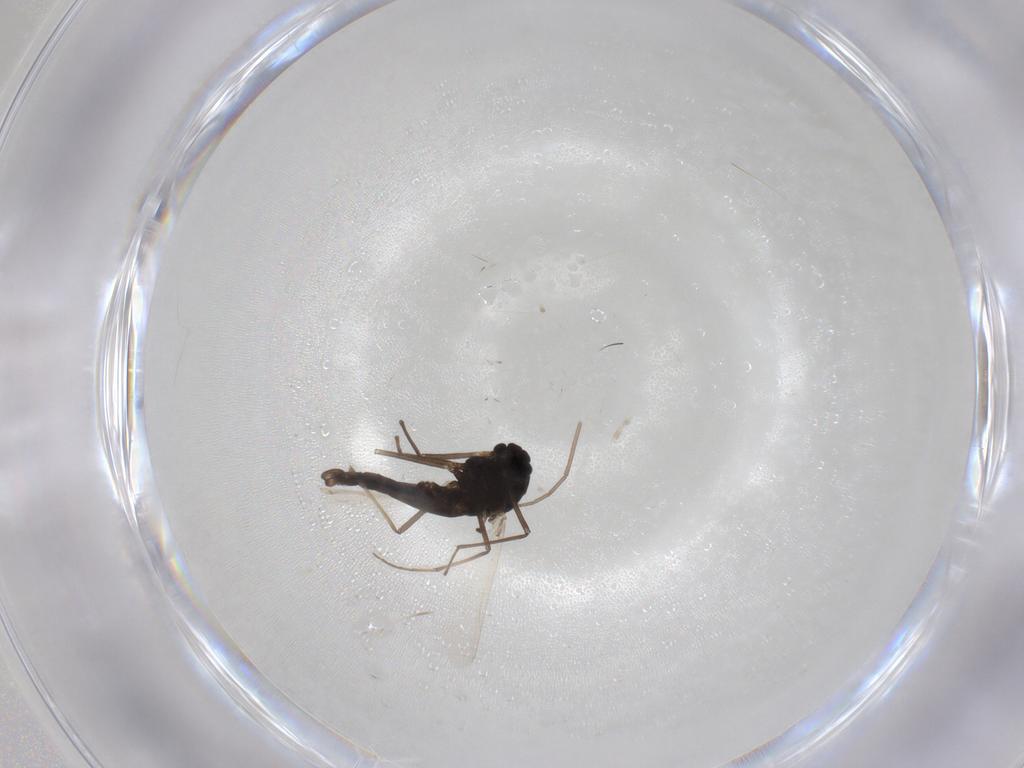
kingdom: Animalia
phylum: Arthropoda
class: Insecta
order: Diptera
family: Chironomidae
